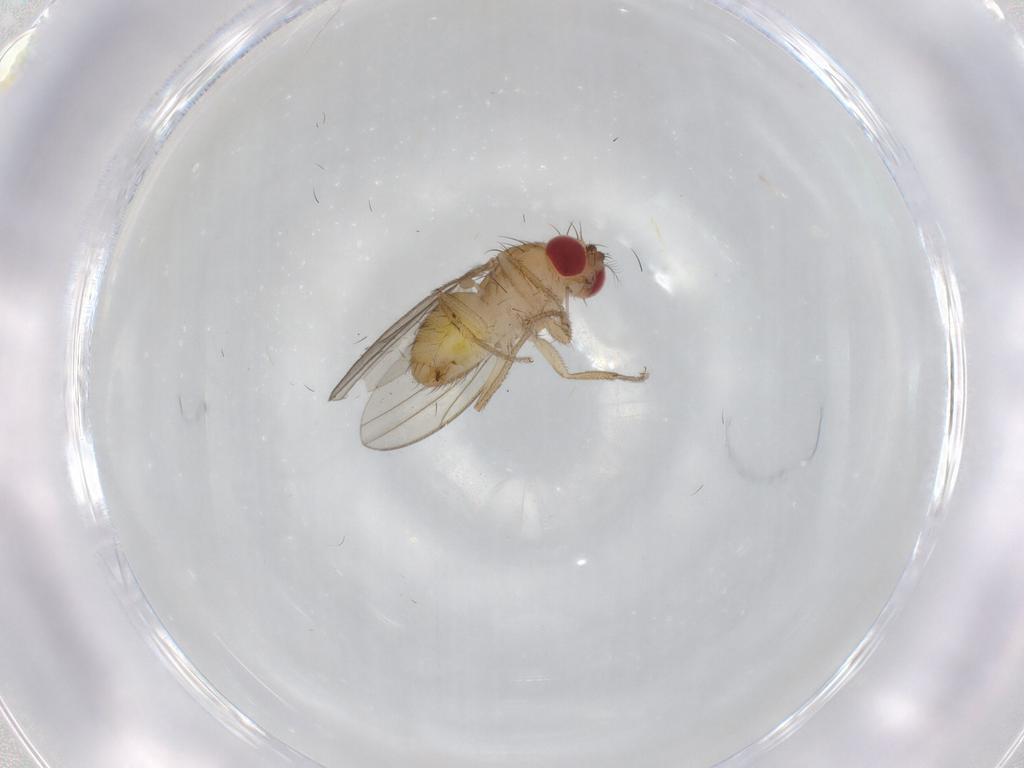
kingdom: Animalia
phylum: Arthropoda
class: Insecta
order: Diptera
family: Drosophilidae
